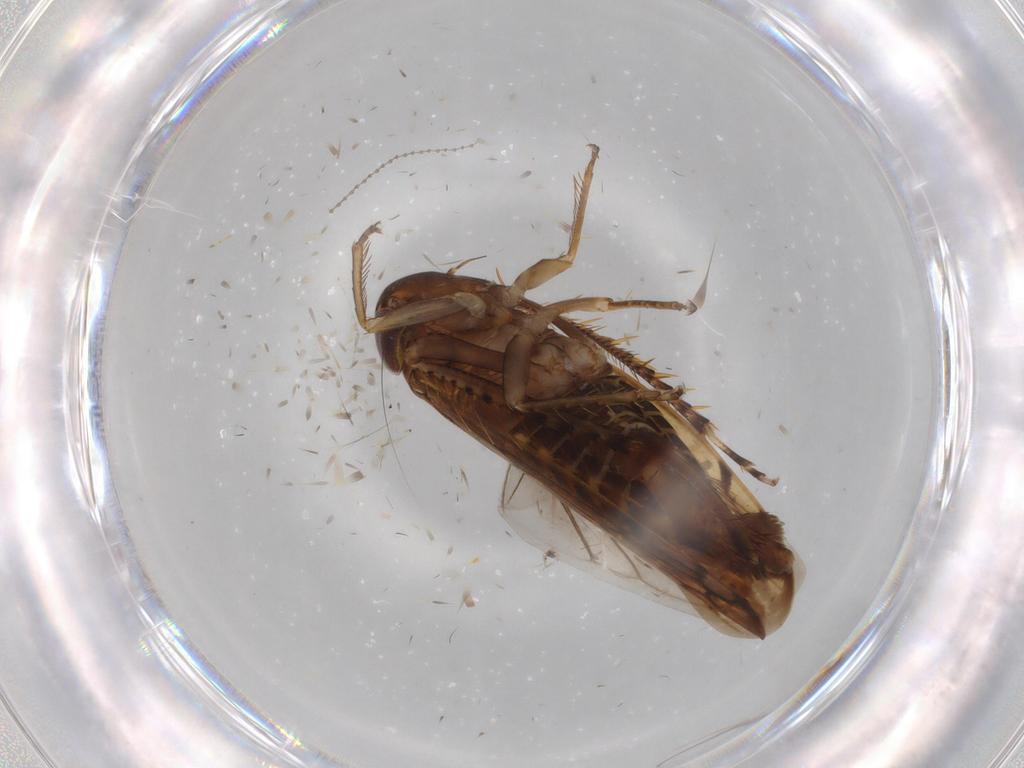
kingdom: Animalia
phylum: Arthropoda
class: Insecta
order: Hemiptera
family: Cicadellidae
